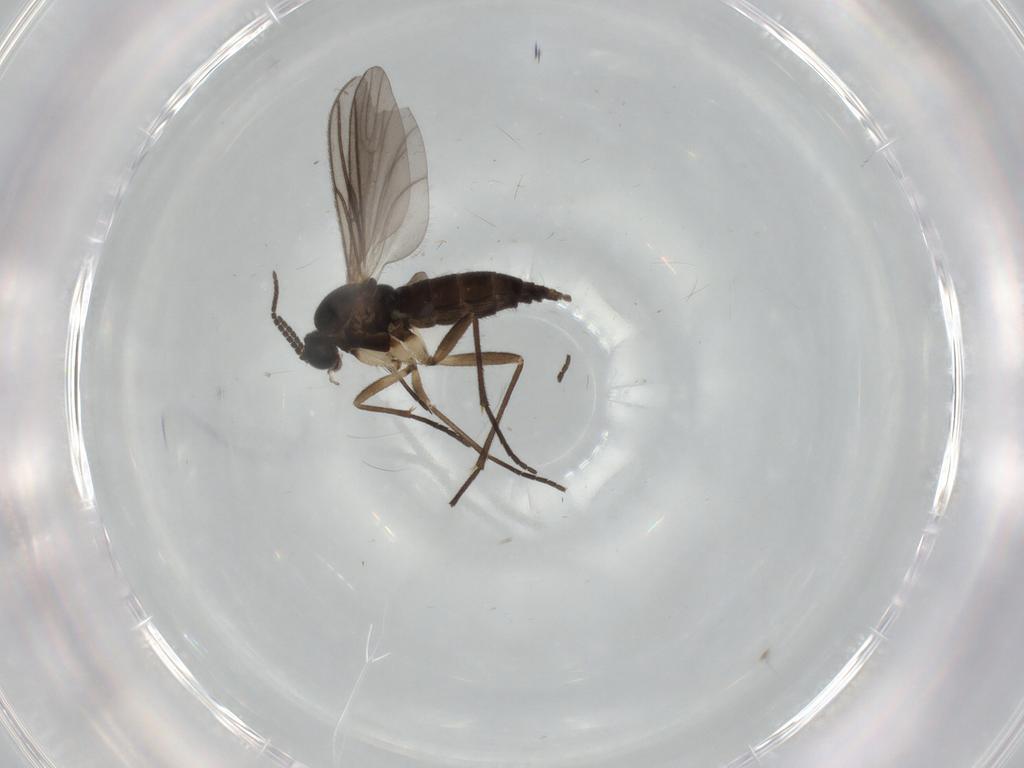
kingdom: Animalia
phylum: Arthropoda
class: Insecta
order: Diptera
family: Sciaridae
